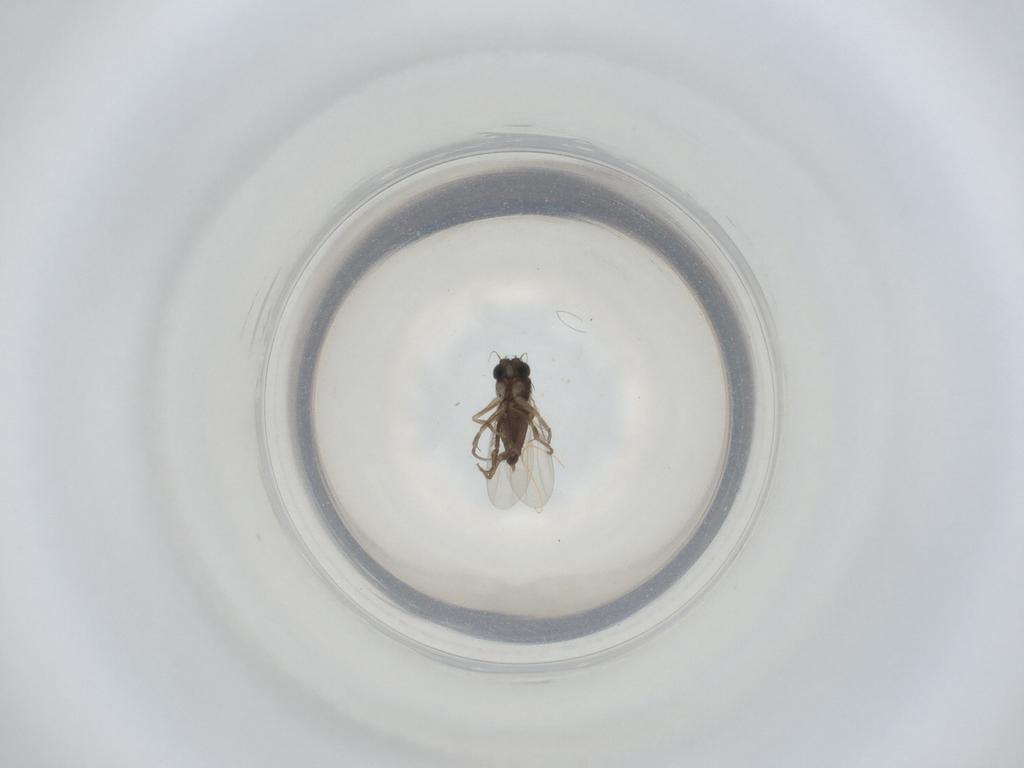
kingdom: Animalia
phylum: Arthropoda
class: Insecta
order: Diptera
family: Phoridae
